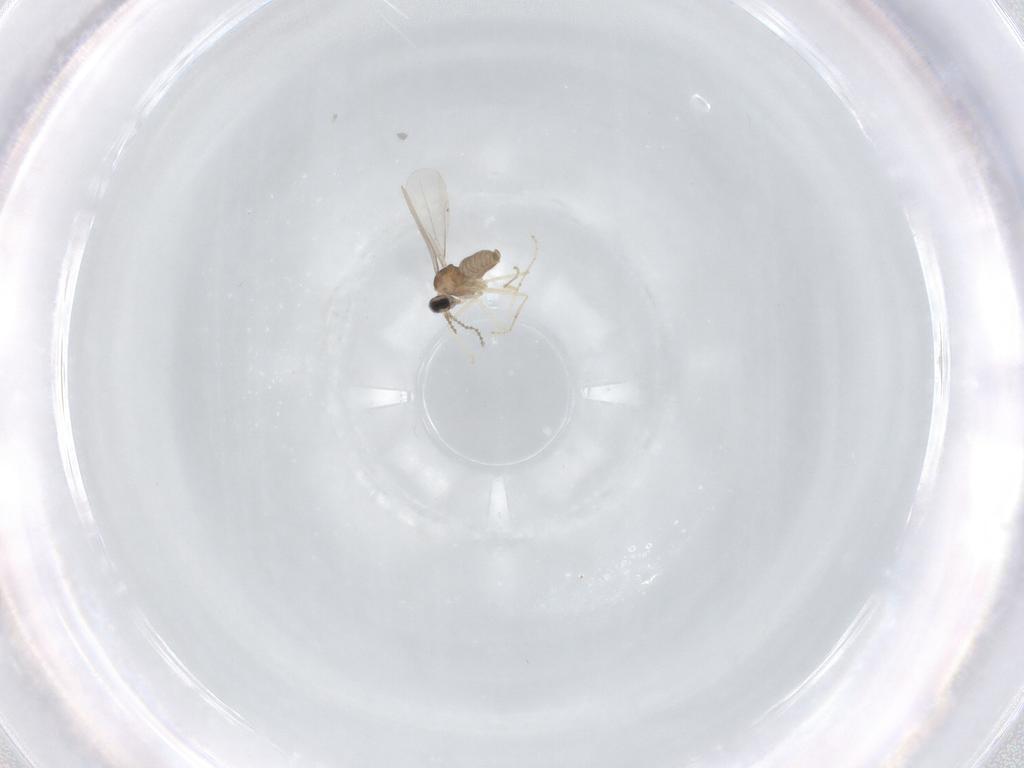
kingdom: Animalia
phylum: Arthropoda
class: Insecta
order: Diptera
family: Cecidomyiidae
